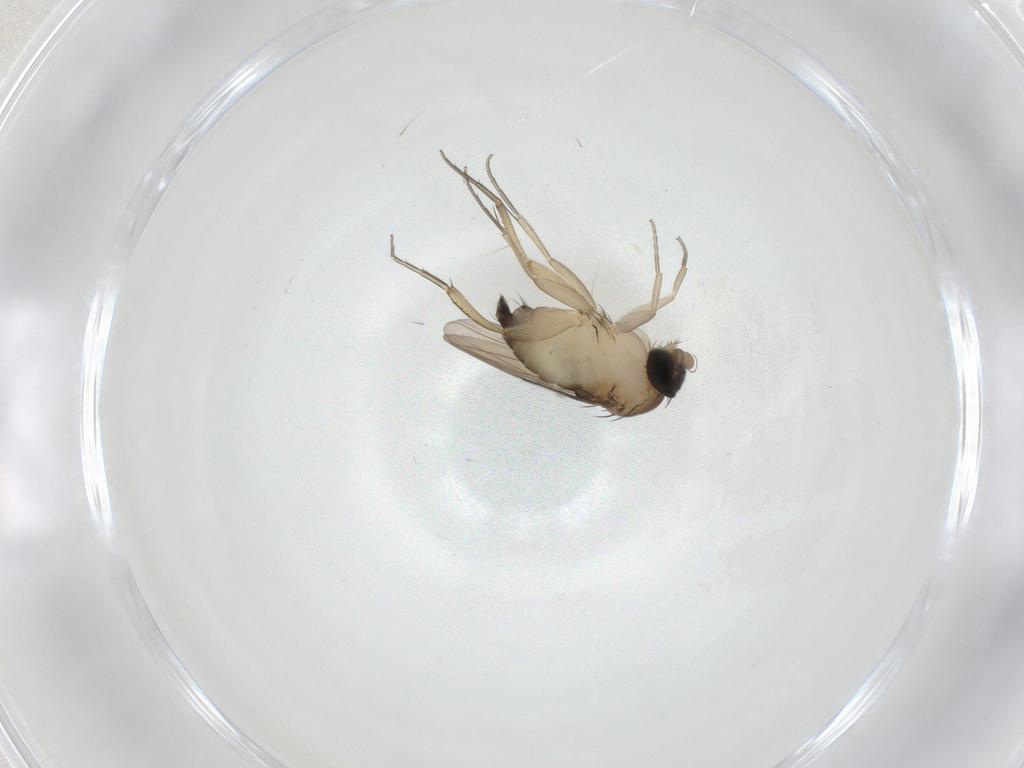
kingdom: Animalia
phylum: Arthropoda
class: Insecta
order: Diptera
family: Phoridae
